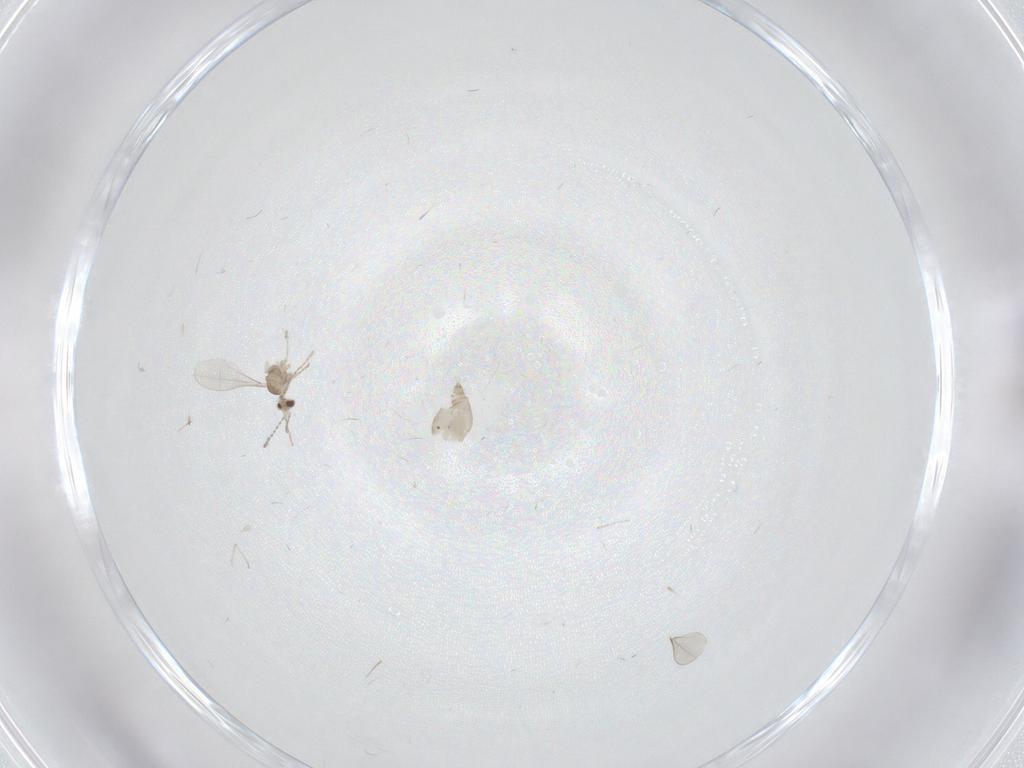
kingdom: Animalia
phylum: Arthropoda
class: Insecta
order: Diptera
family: Cecidomyiidae
